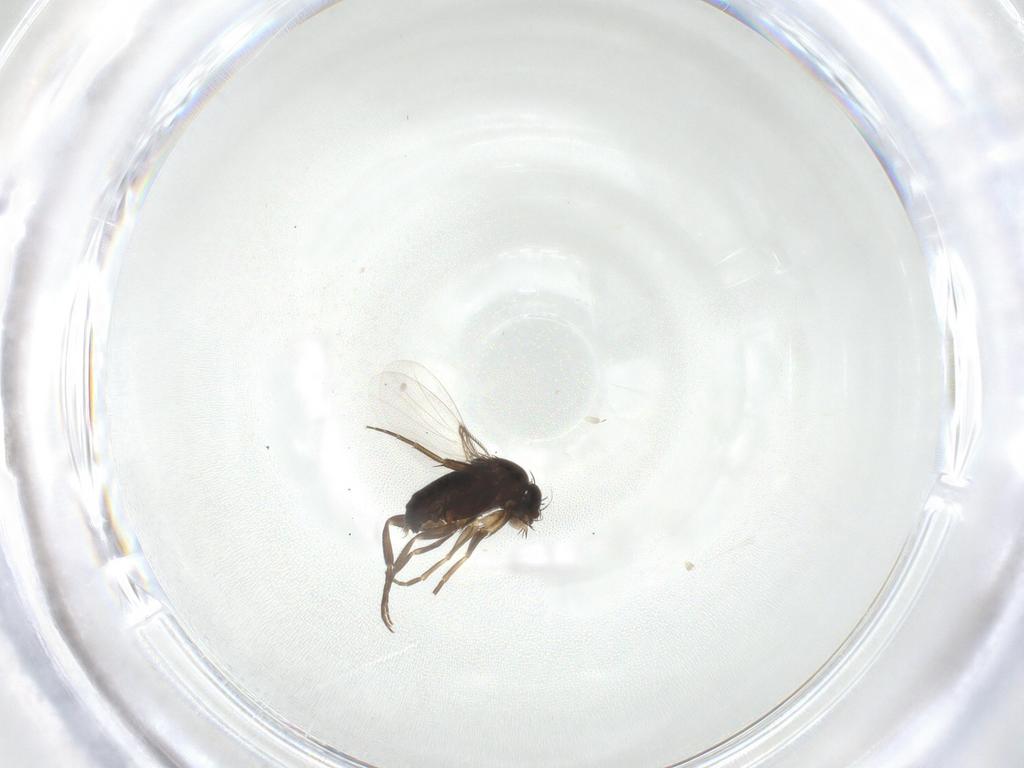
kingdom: Animalia
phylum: Arthropoda
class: Insecta
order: Diptera
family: Phoridae
